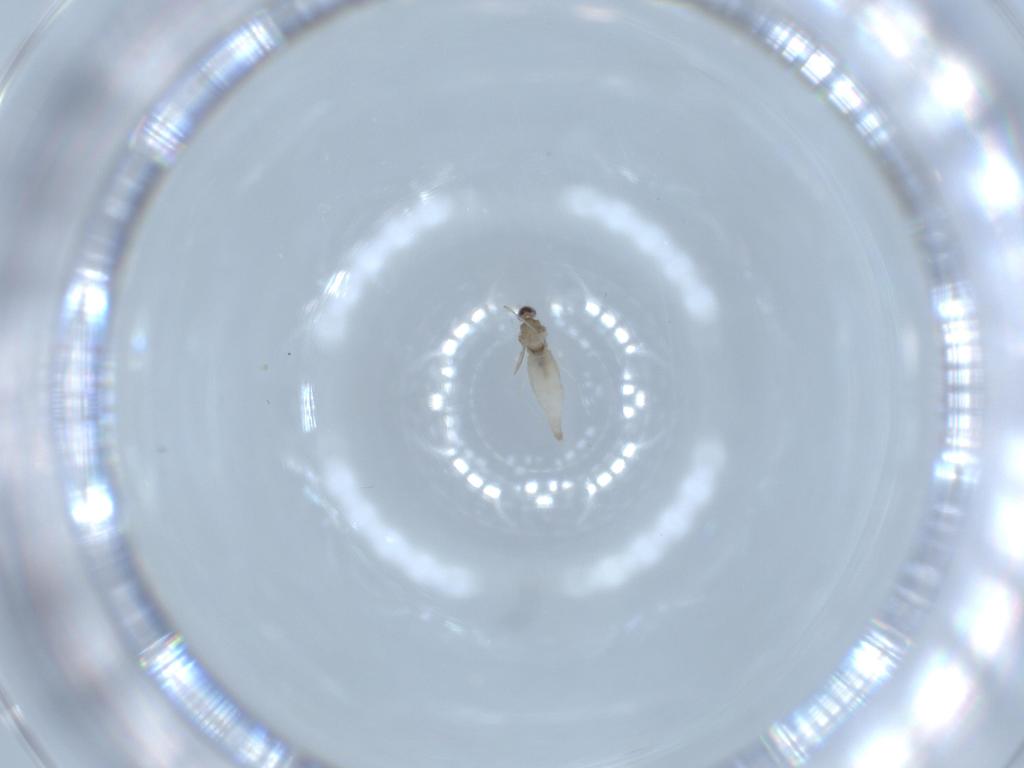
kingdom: Animalia
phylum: Arthropoda
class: Insecta
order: Diptera
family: Cecidomyiidae
